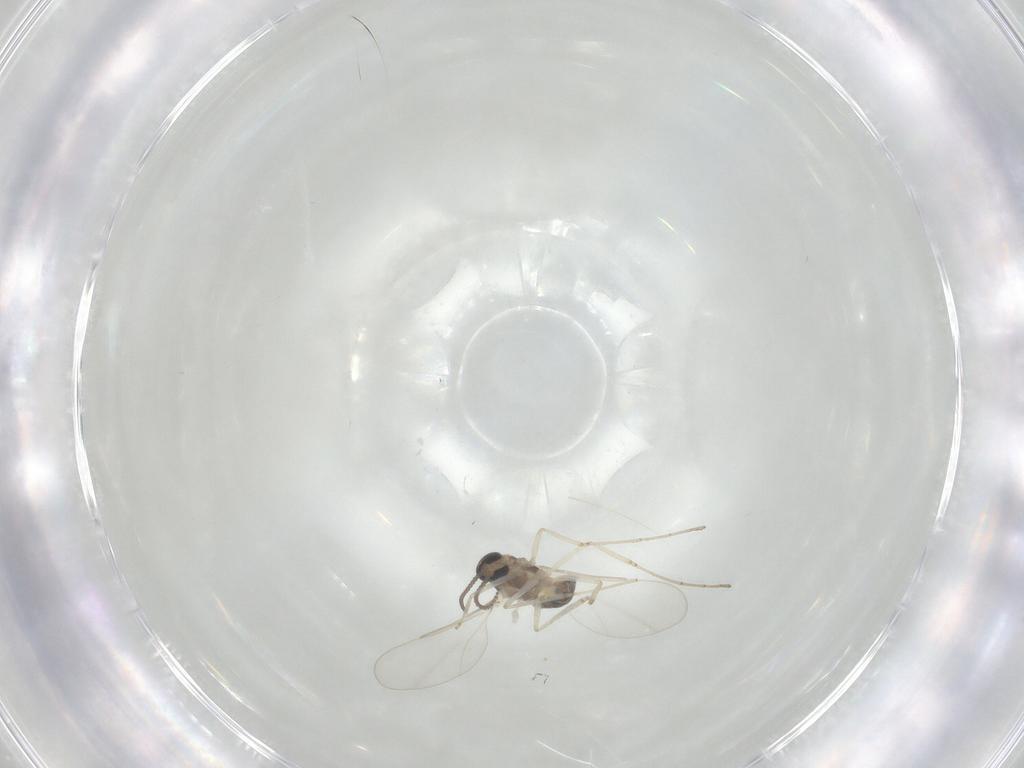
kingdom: Animalia
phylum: Arthropoda
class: Insecta
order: Diptera
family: Cecidomyiidae
